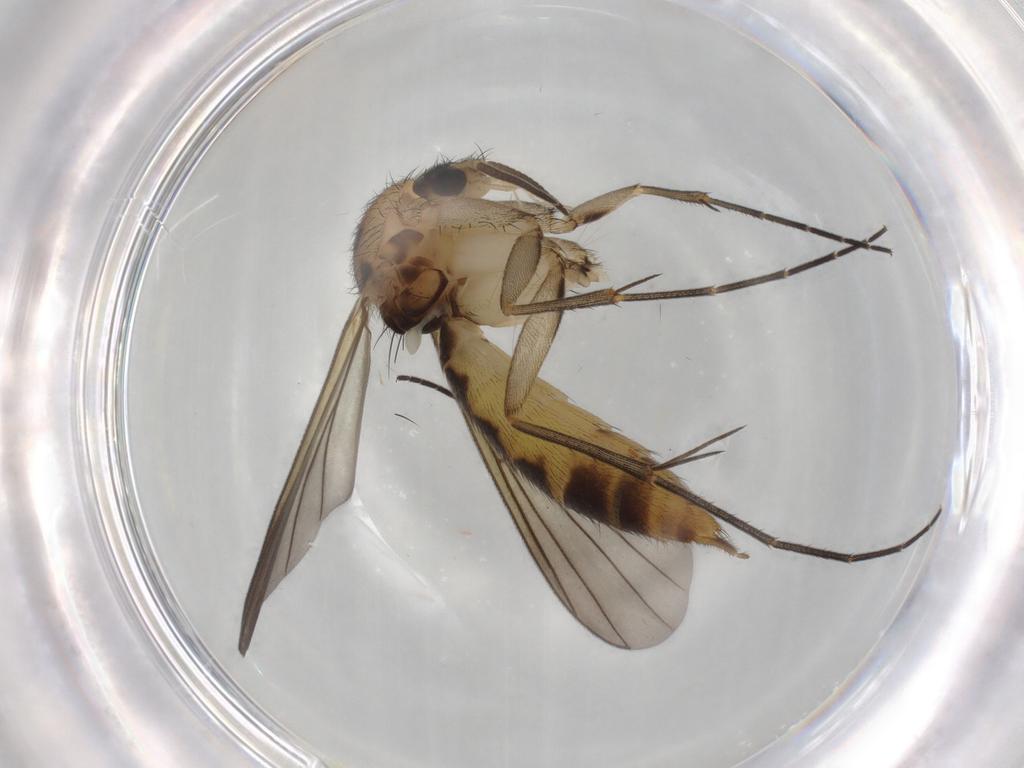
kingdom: Animalia
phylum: Arthropoda
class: Insecta
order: Diptera
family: Mycetophilidae
